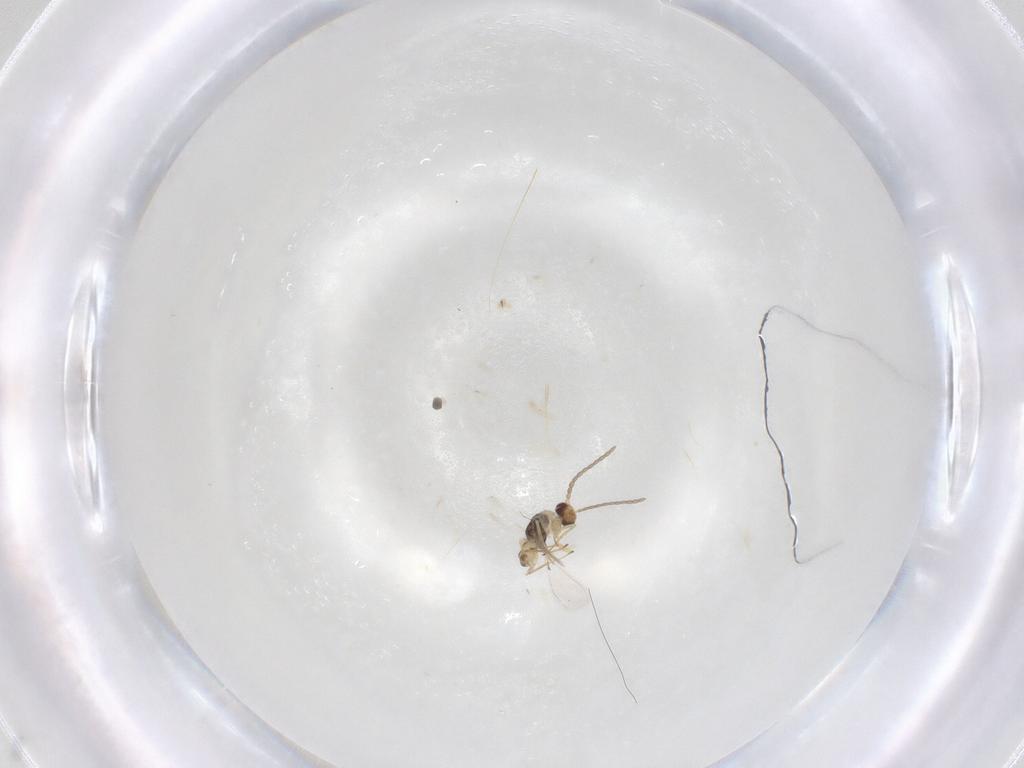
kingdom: Animalia
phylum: Arthropoda
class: Insecta
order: Hymenoptera
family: Mymaridae
